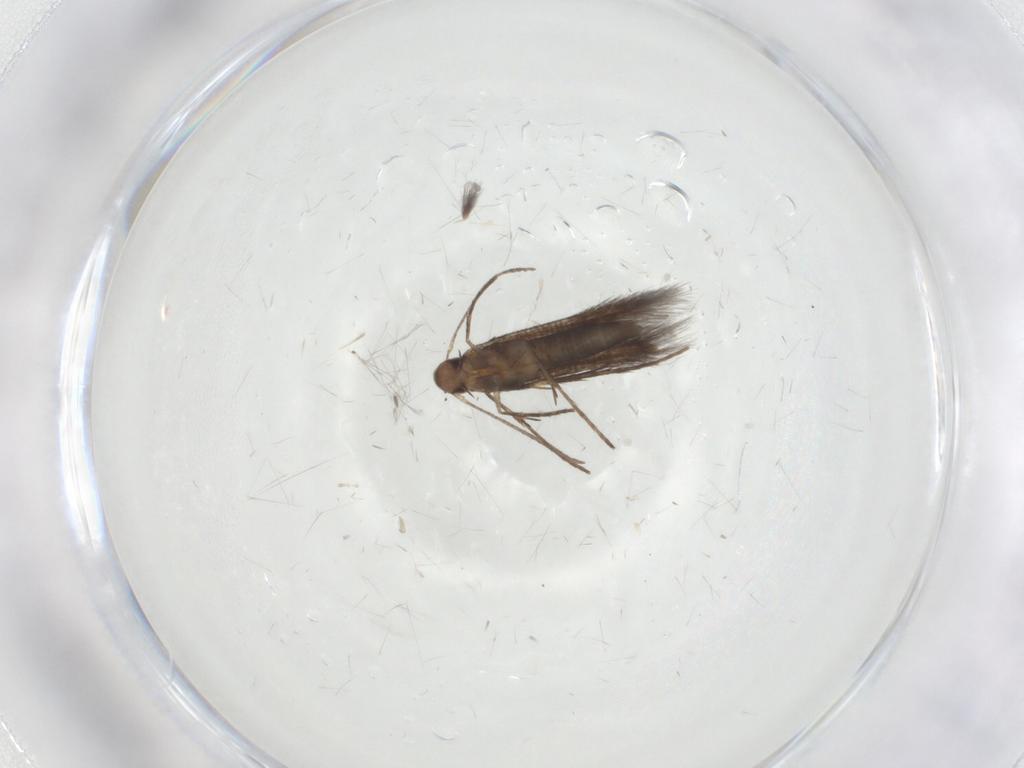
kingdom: Animalia
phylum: Arthropoda
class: Insecta
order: Lepidoptera
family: Gelechiidae
